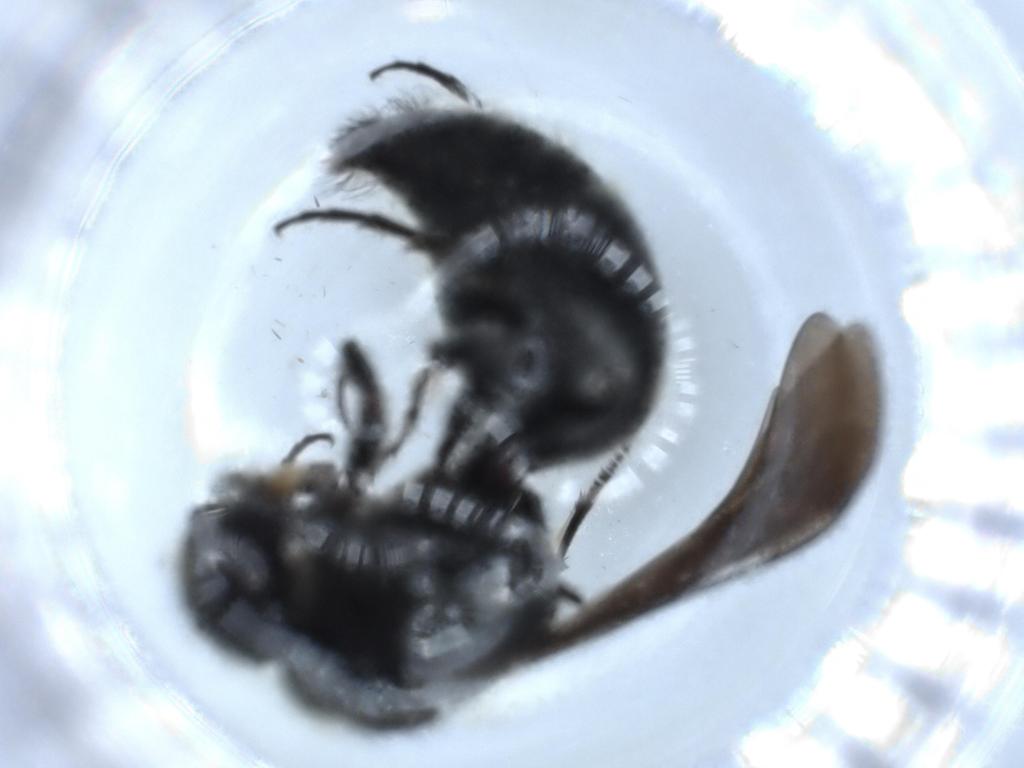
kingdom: Animalia
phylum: Arthropoda
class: Insecta
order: Hymenoptera
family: Mutillidae
